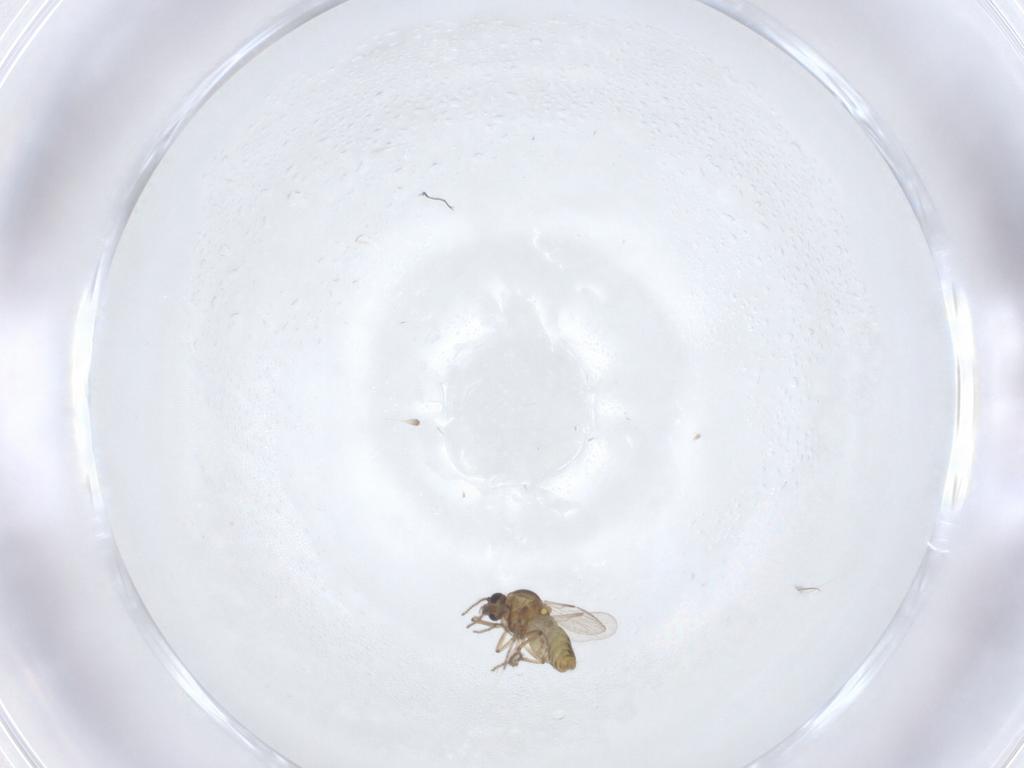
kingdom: Animalia
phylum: Arthropoda
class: Insecta
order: Diptera
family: Ceratopogonidae
